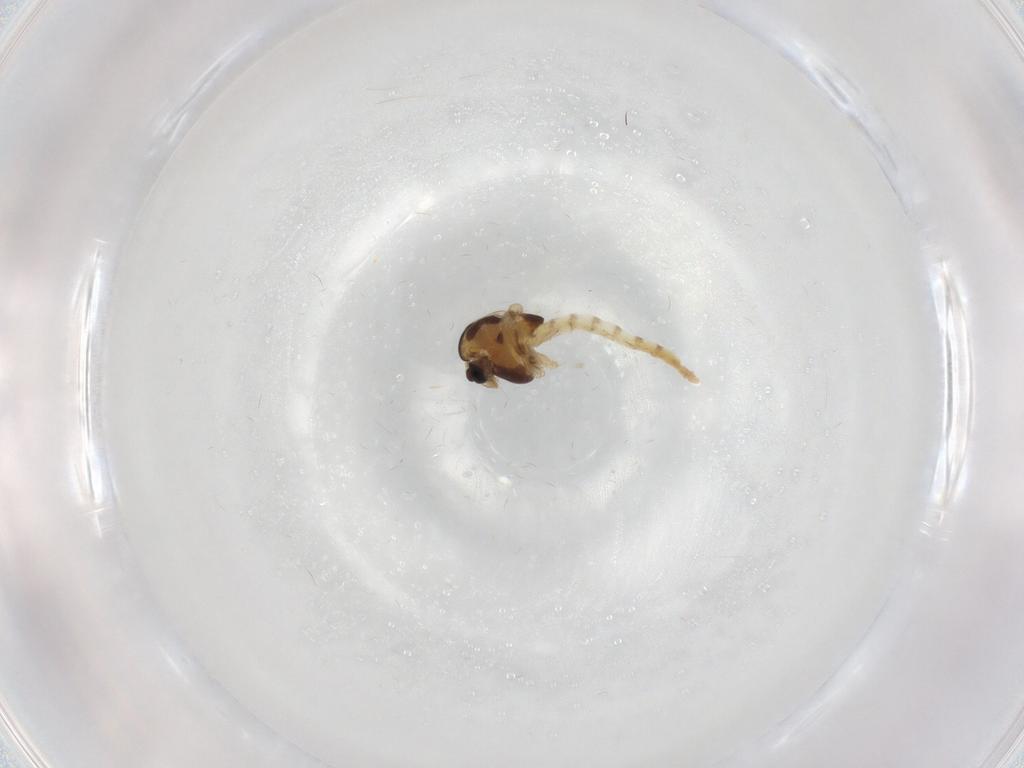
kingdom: Animalia
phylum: Arthropoda
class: Insecta
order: Diptera
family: Chironomidae
